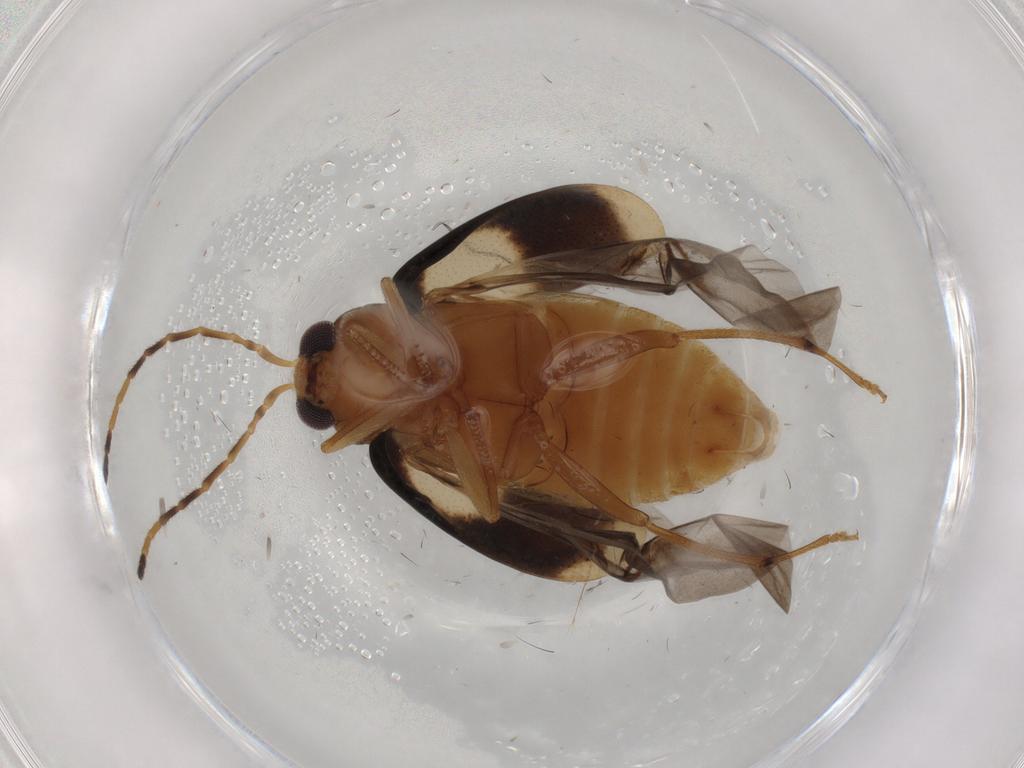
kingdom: Animalia
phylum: Arthropoda
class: Insecta
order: Coleoptera
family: Chrysomelidae
